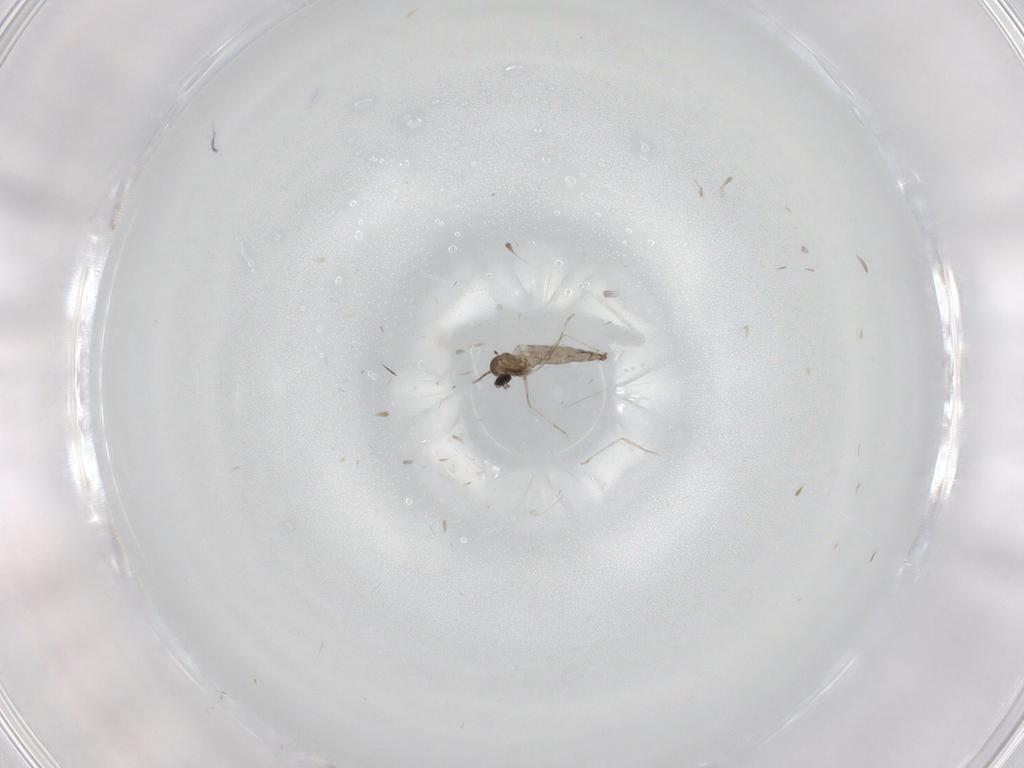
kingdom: Animalia
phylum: Arthropoda
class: Insecta
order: Diptera
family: Cecidomyiidae
